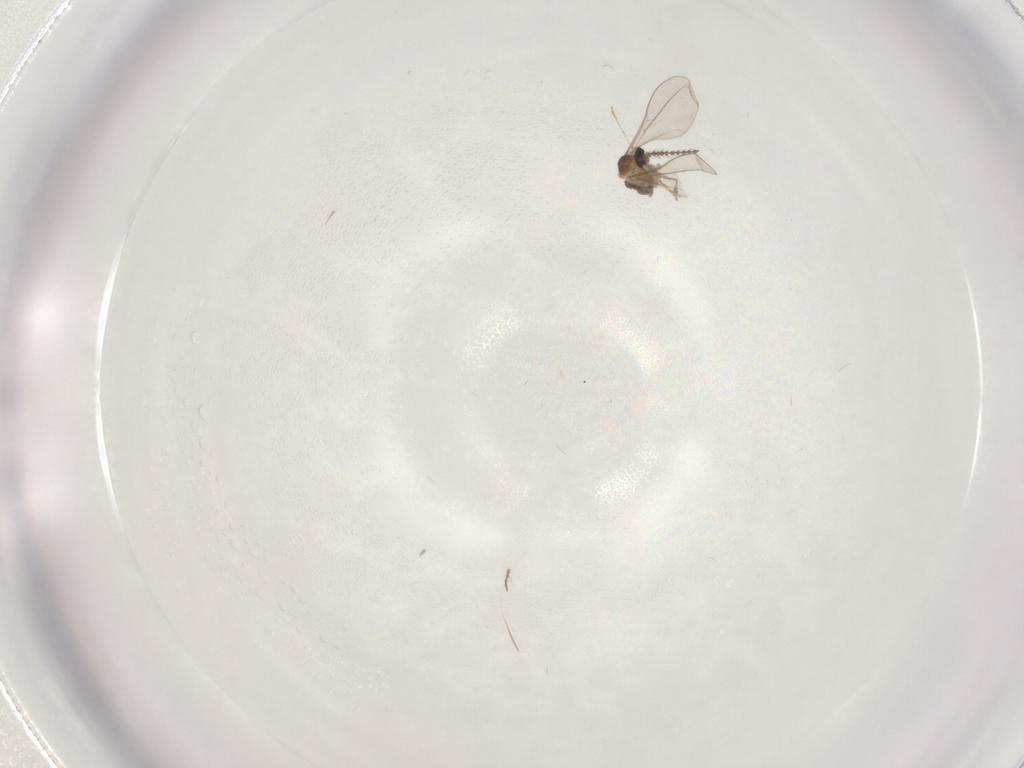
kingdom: Animalia
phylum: Arthropoda
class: Insecta
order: Diptera
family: Cecidomyiidae
